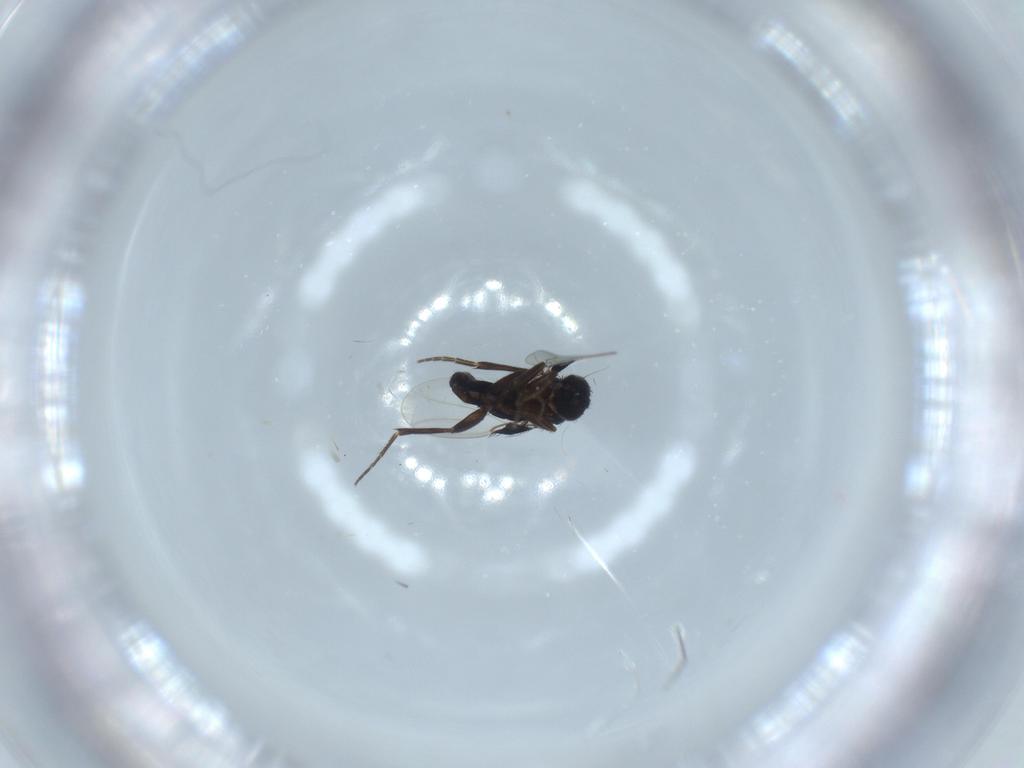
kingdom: Animalia
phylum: Arthropoda
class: Insecta
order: Diptera
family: Phoridae
